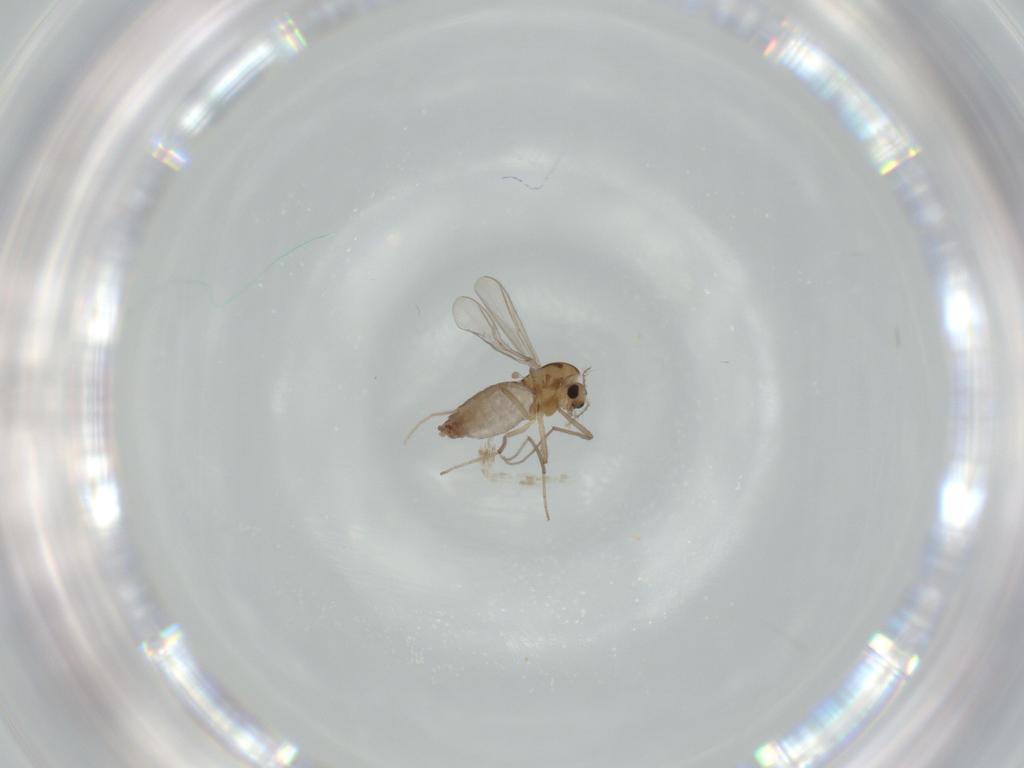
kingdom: Animalia
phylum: Arthropoda
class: Insecta
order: Diptera
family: Chironomidae
